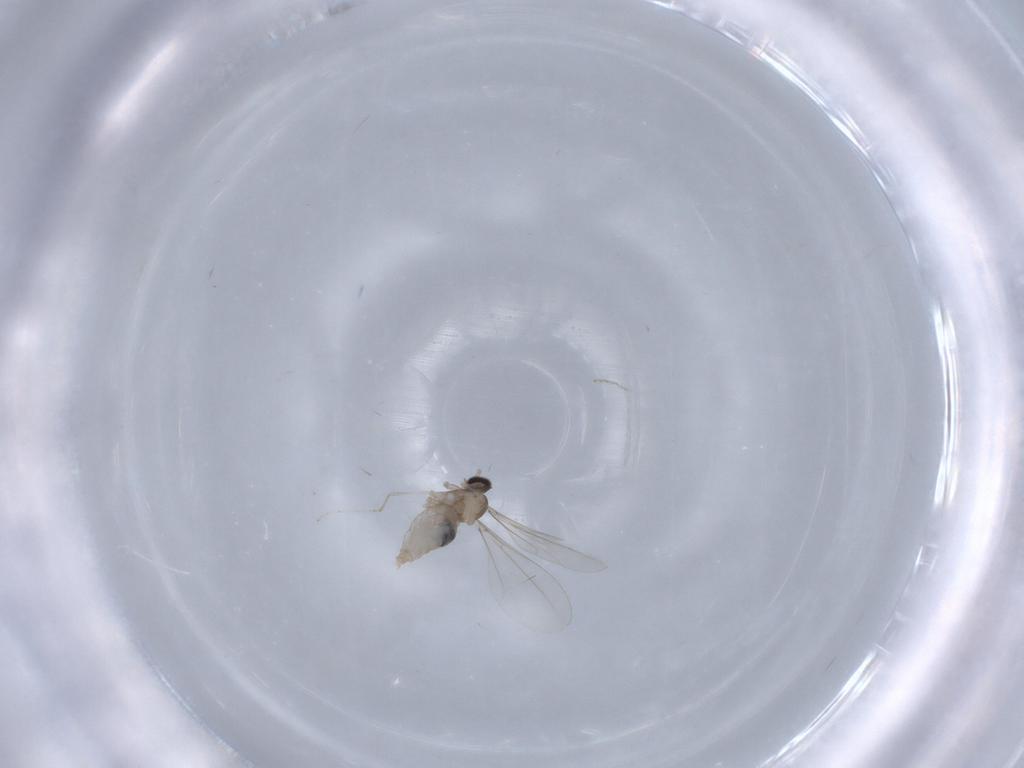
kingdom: Animalia
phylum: Arthropoda
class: Insecta
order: Diptera
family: Cecidomyiidae
